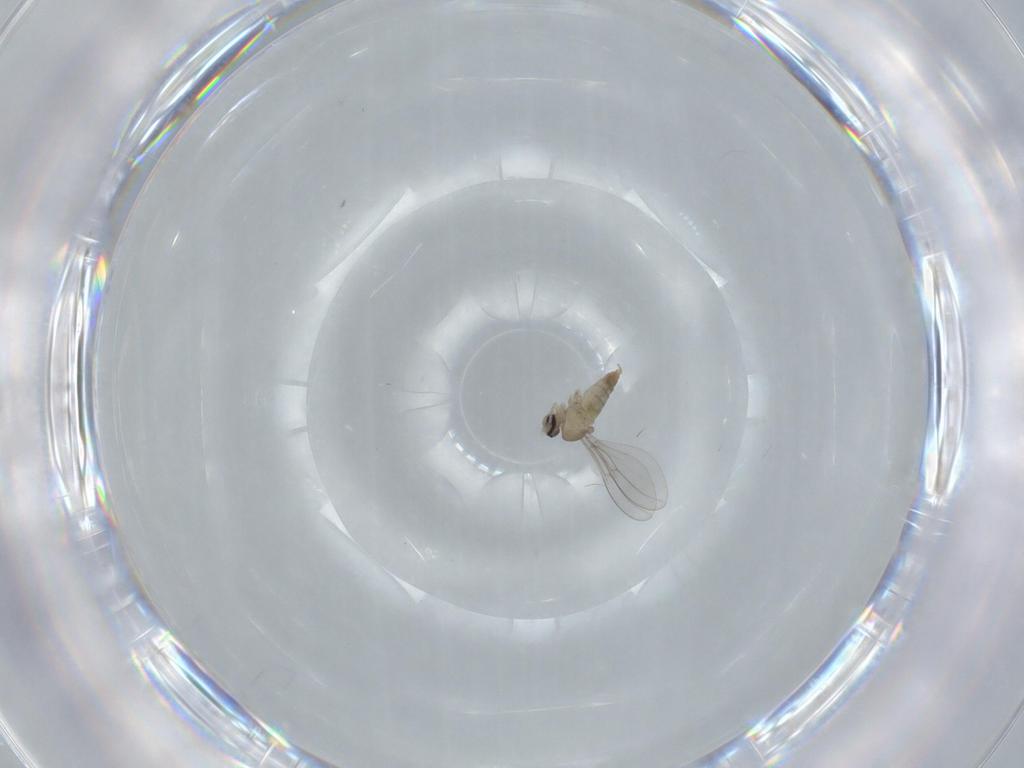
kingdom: Animalia
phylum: Arthropoda
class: Insecta
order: Diptera
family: Cecidomyiidae
